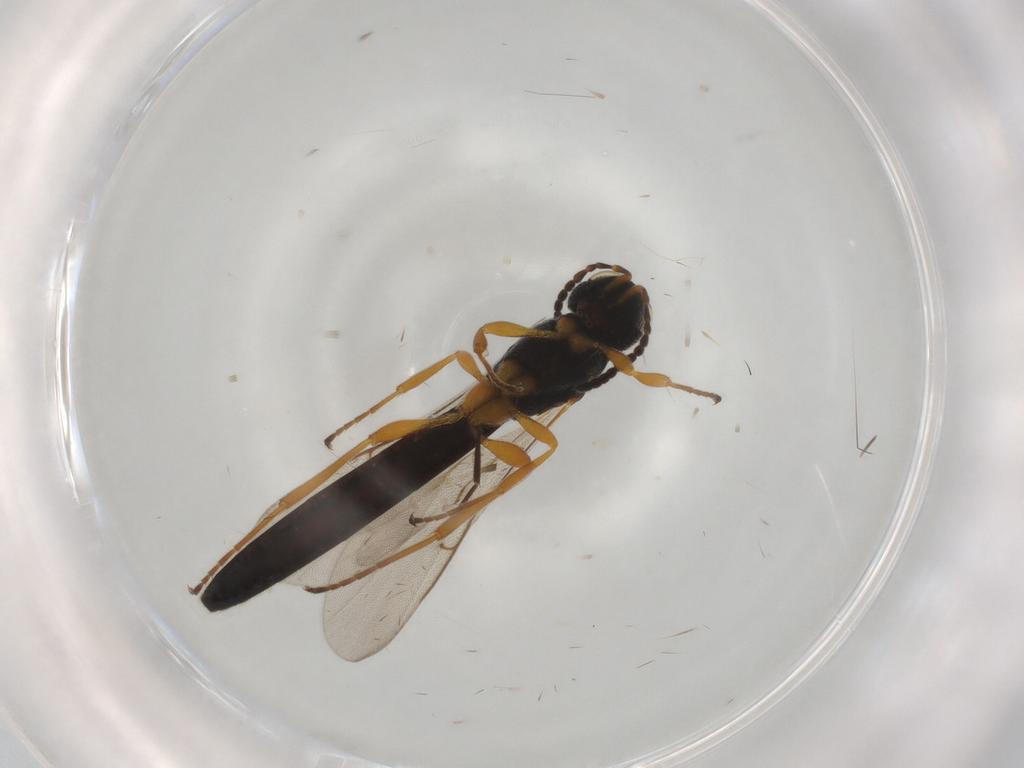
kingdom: Animalia
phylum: Arthropoda
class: Insecta
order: Hymenoptera
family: Scelionidae
